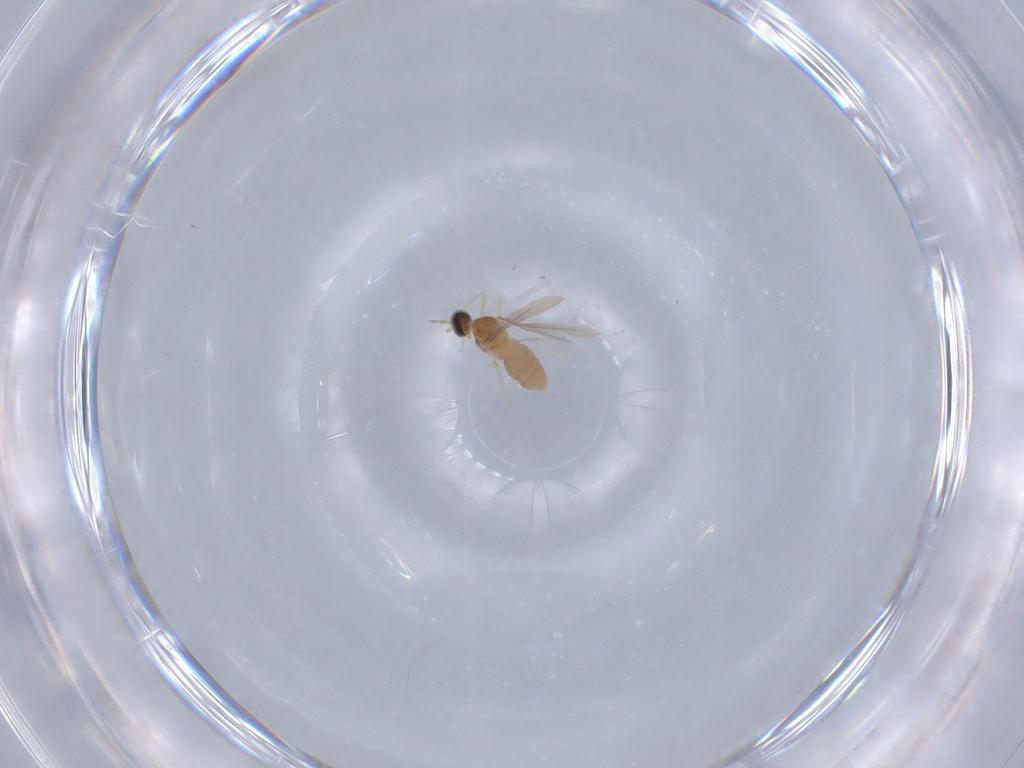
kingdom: Animalia
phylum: Arthropoda
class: Insecta
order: Diptera
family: Cecidomyiidae
